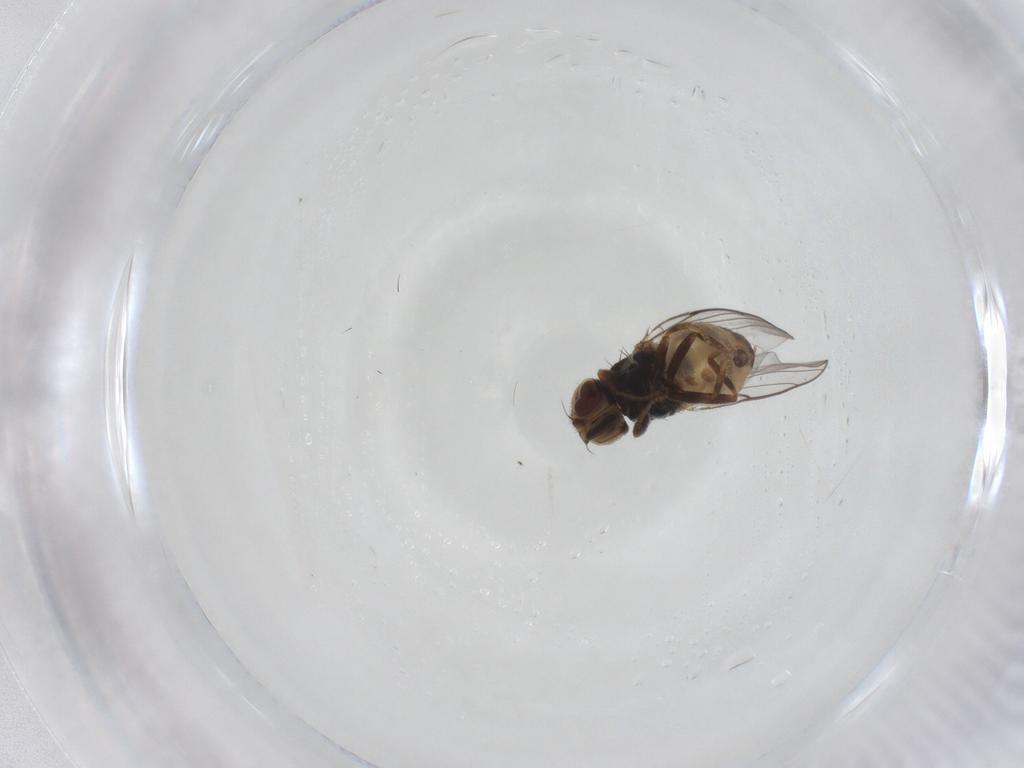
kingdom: Animalia
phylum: Arthropoda
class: Insecta
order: Diptera
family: Chloropidae
